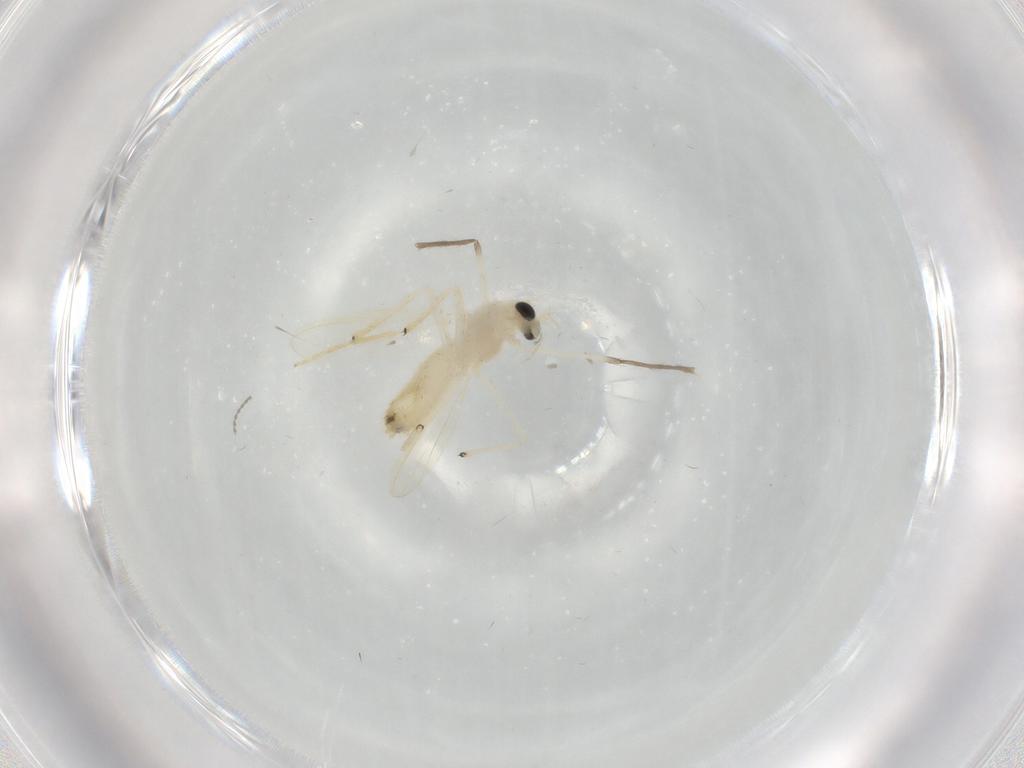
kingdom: Animalia
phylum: Arthropoda
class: Insecta
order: Diptera
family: Chironomidae
